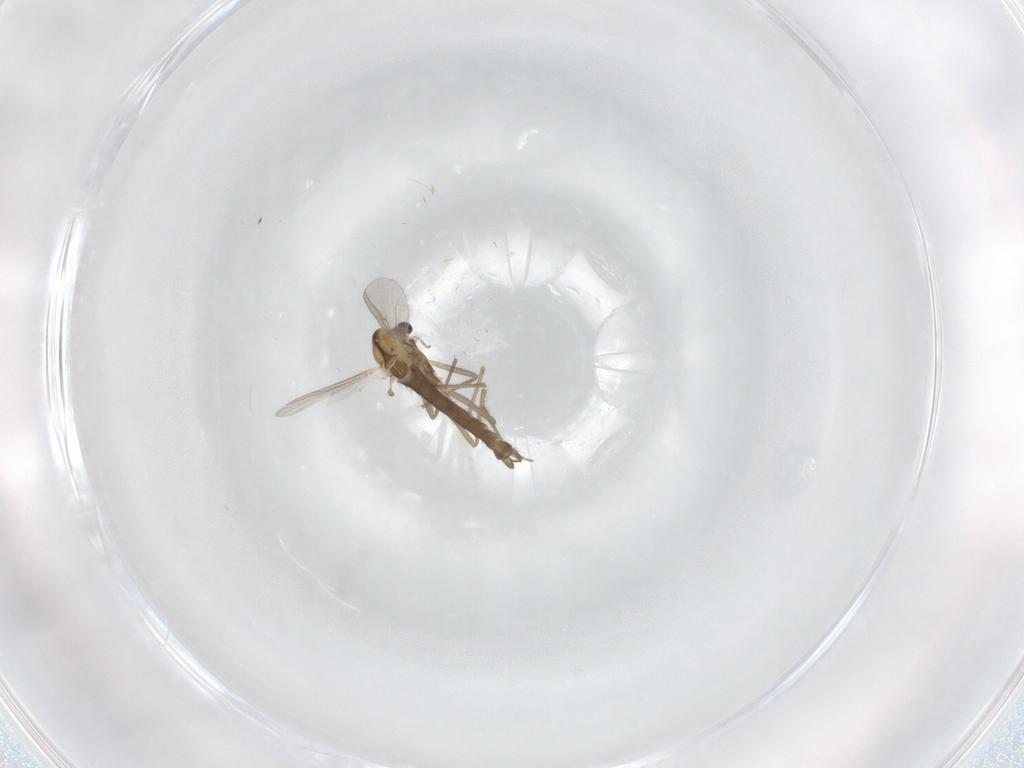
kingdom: Animalia
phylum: Arthropoda
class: Insecta
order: Diptera
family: Chironomidae
